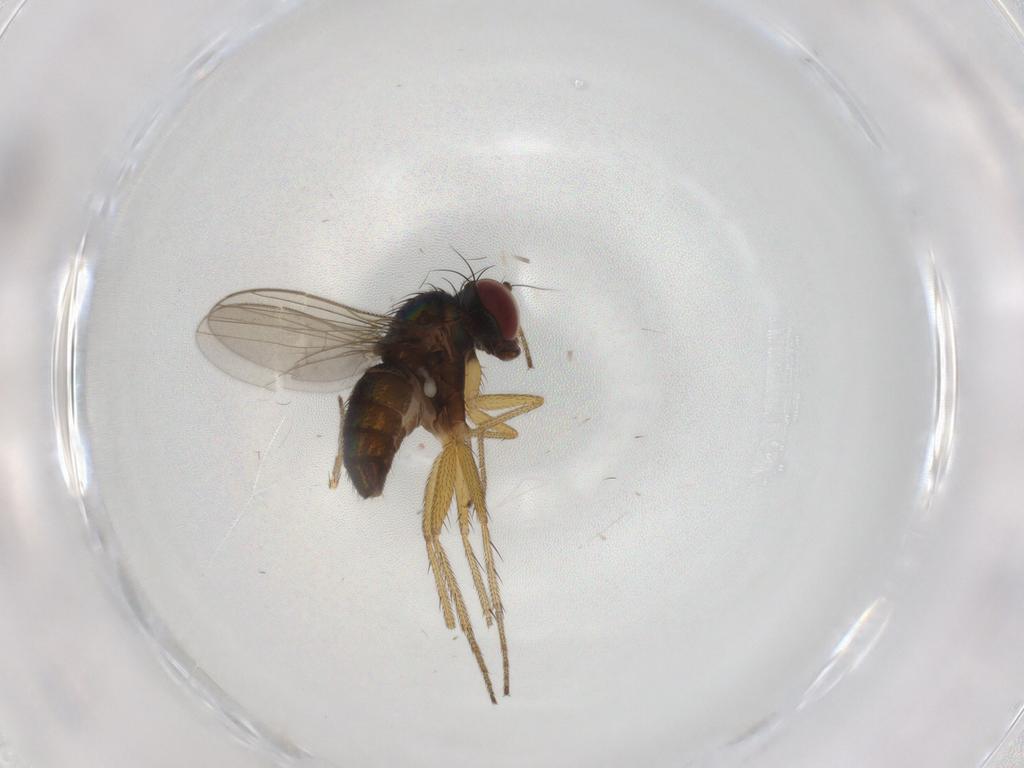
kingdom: Animalia
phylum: Arthropoda
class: Insecta
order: Diptera
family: Dolichopodidae
